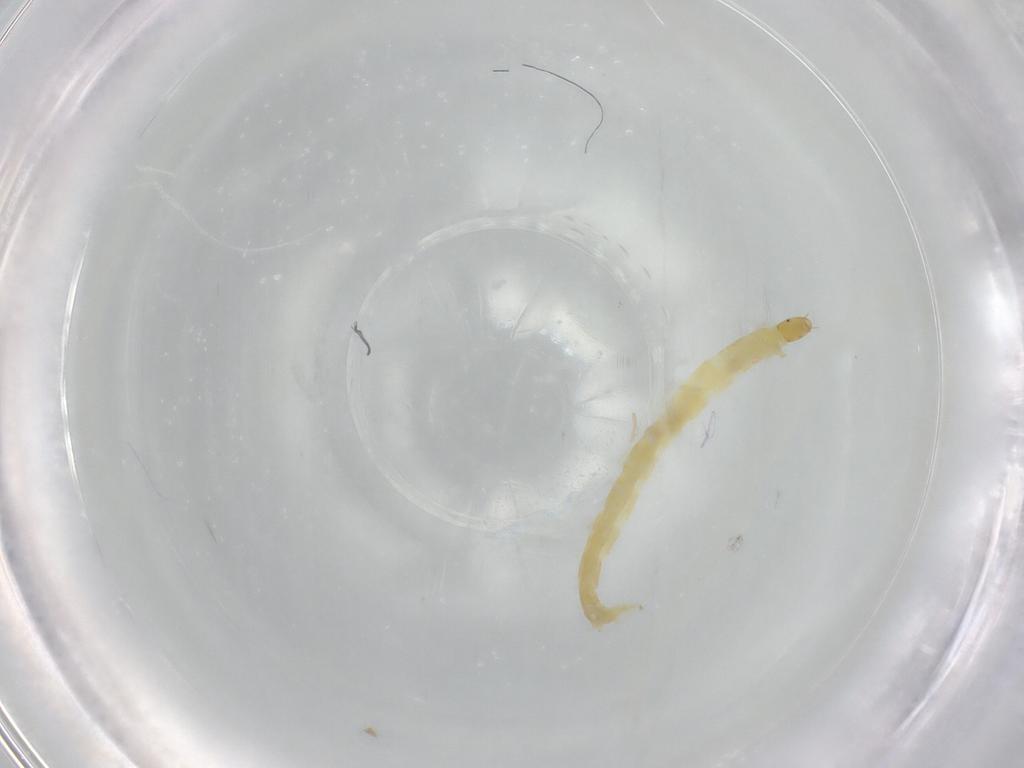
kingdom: Animalia
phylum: Arthropoda
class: Insecta
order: Diptera
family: Chironomidae
